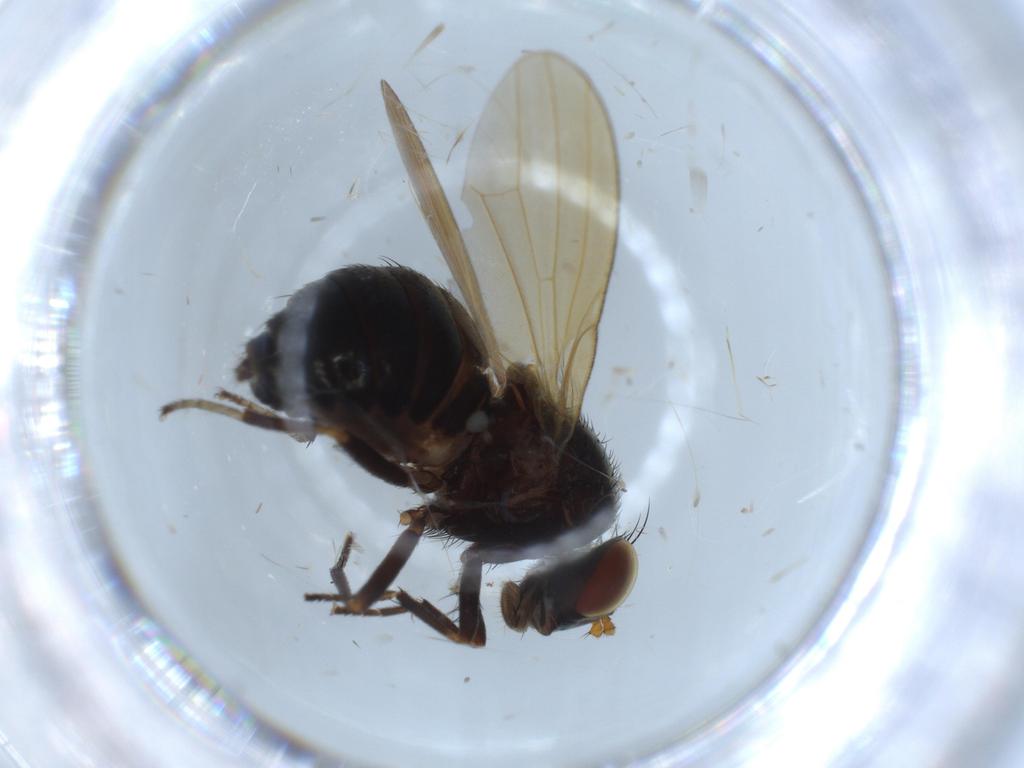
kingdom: Animalia
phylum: Arthropoda
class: Insecta
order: Diptera
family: Lauxaniidae
